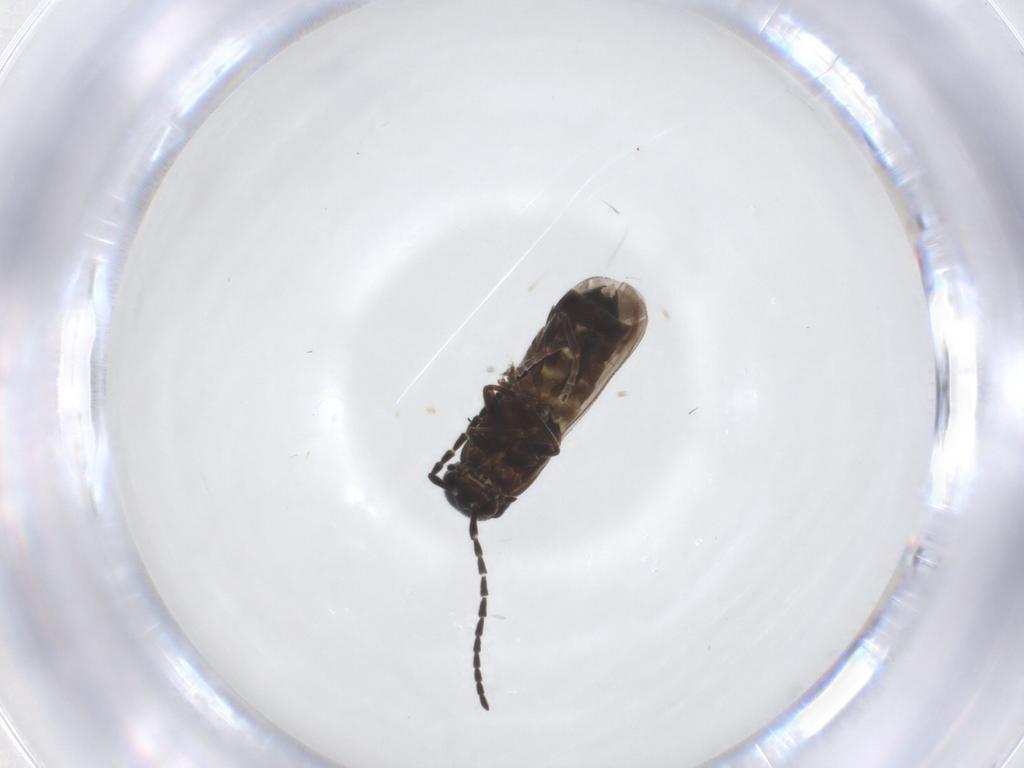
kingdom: Animalia
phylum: Arthropoda
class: Insecta
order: Coleoptera
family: Cantharidae
